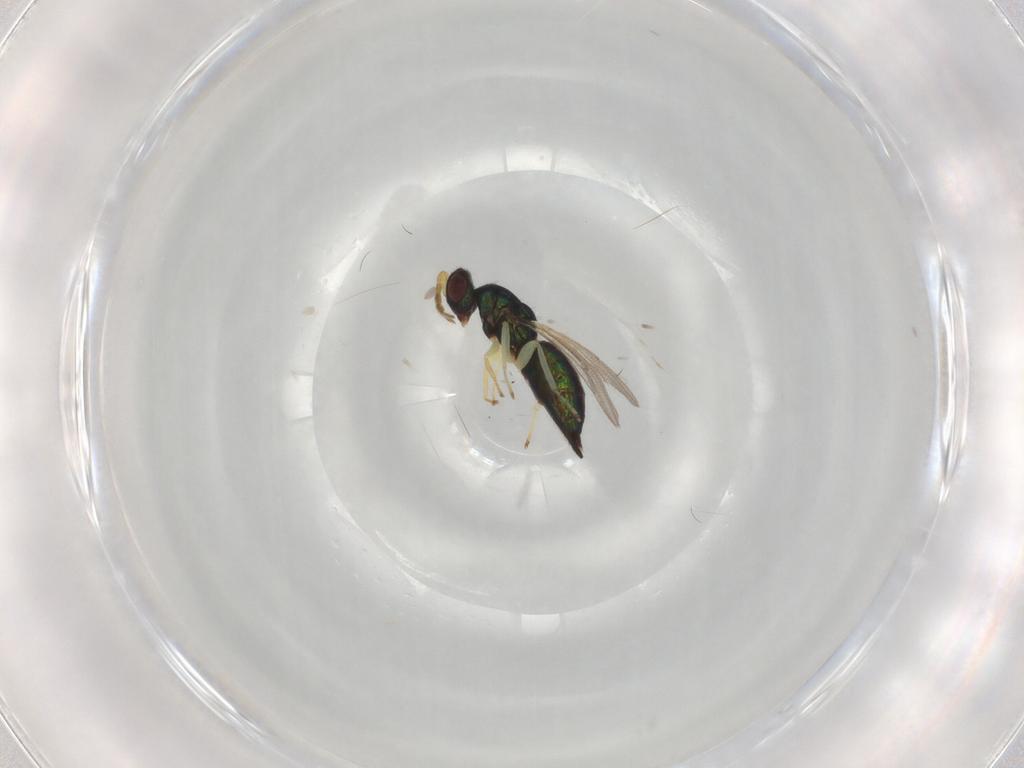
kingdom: Animalia
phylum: Arthropoda
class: Insecta
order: Hymenoptera
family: Eulophidae
